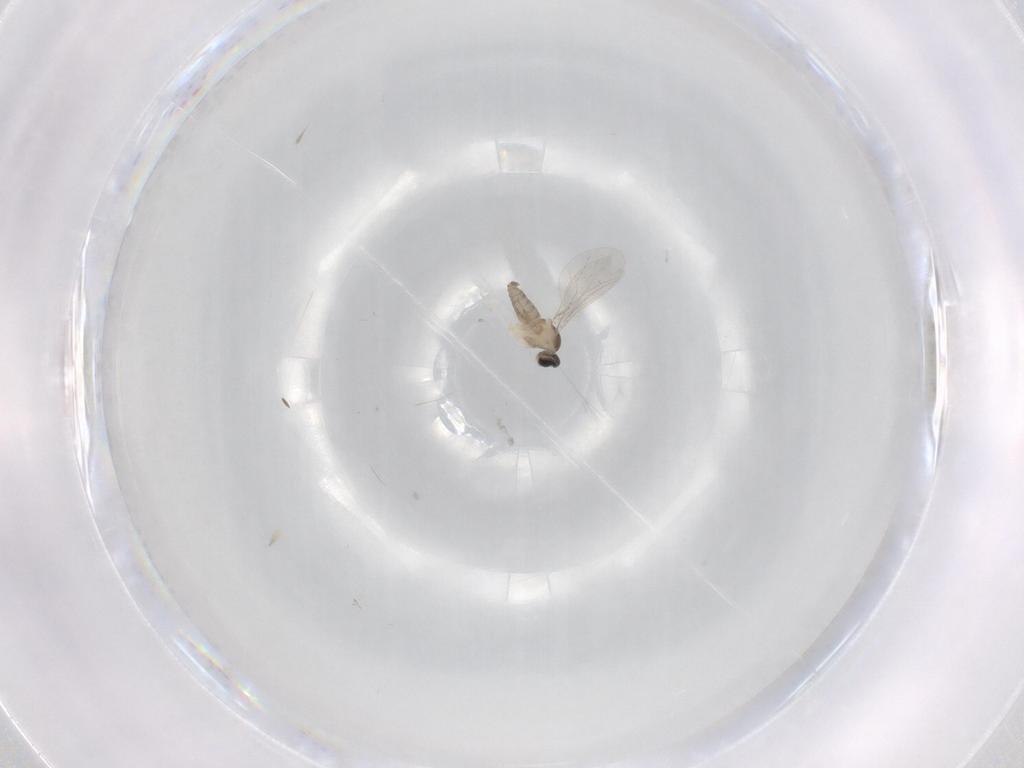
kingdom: Animalia
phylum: Arthropoda
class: Insecta
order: Diptera
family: Cecidomyiidae
